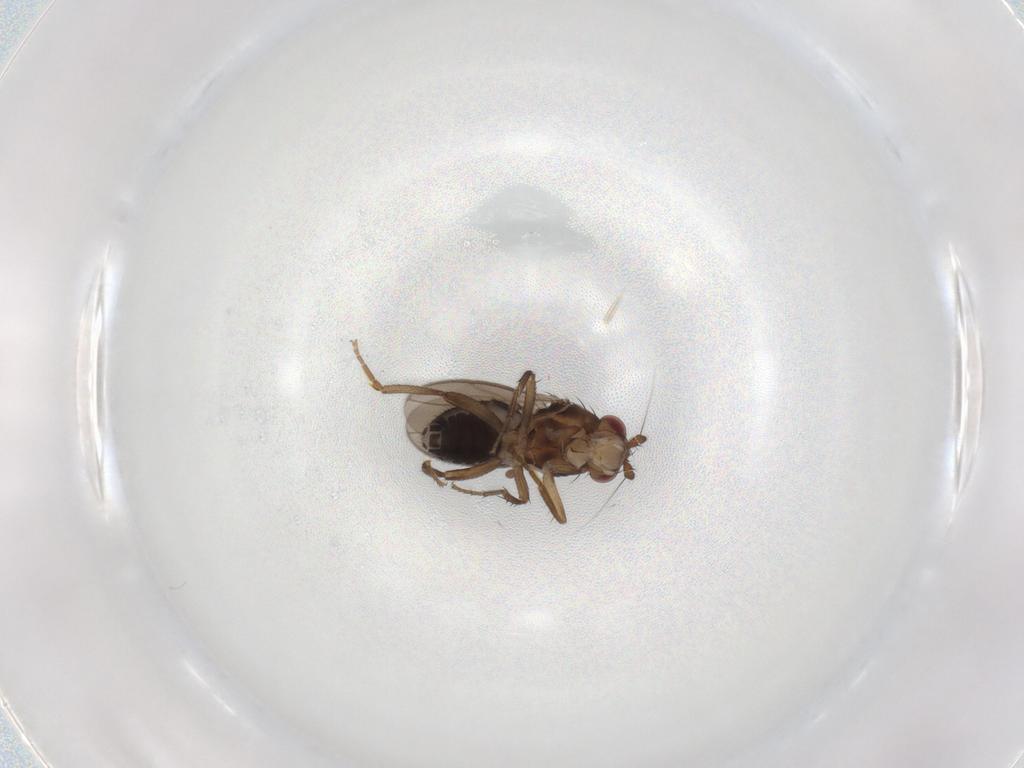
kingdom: Animalia
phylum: Arthropoda
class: Insecta
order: Diptera
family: Sphaeroceridae
